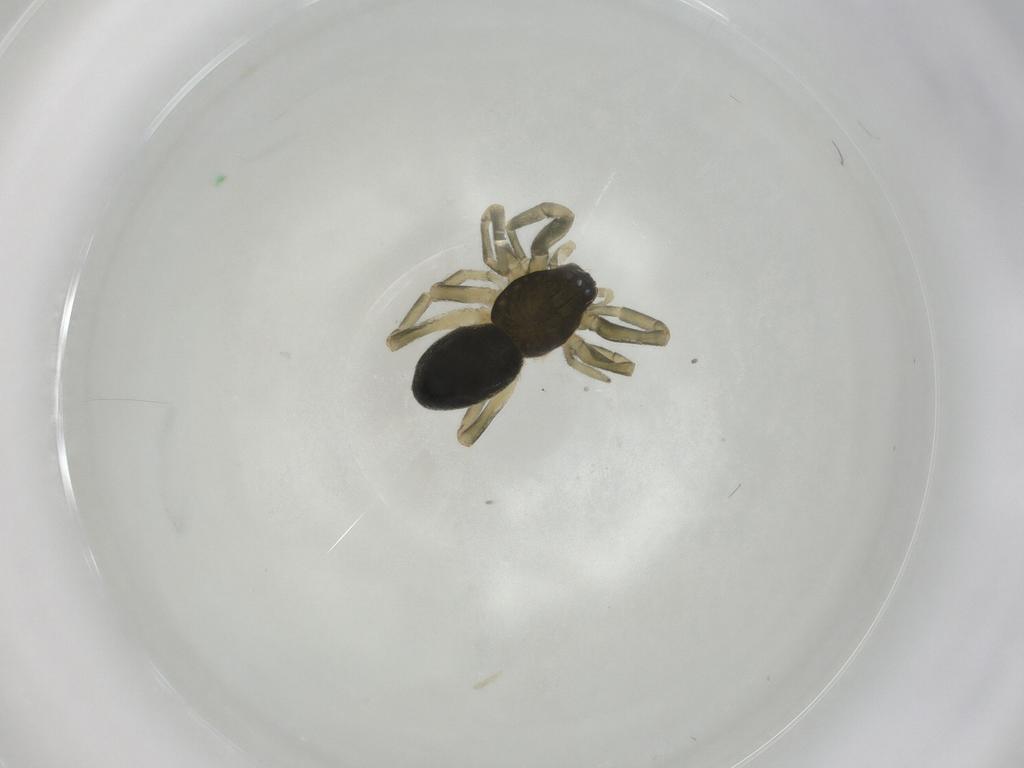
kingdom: Animalia
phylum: Arthropoda
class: Arachnida
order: Araneae
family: Trachelidae
